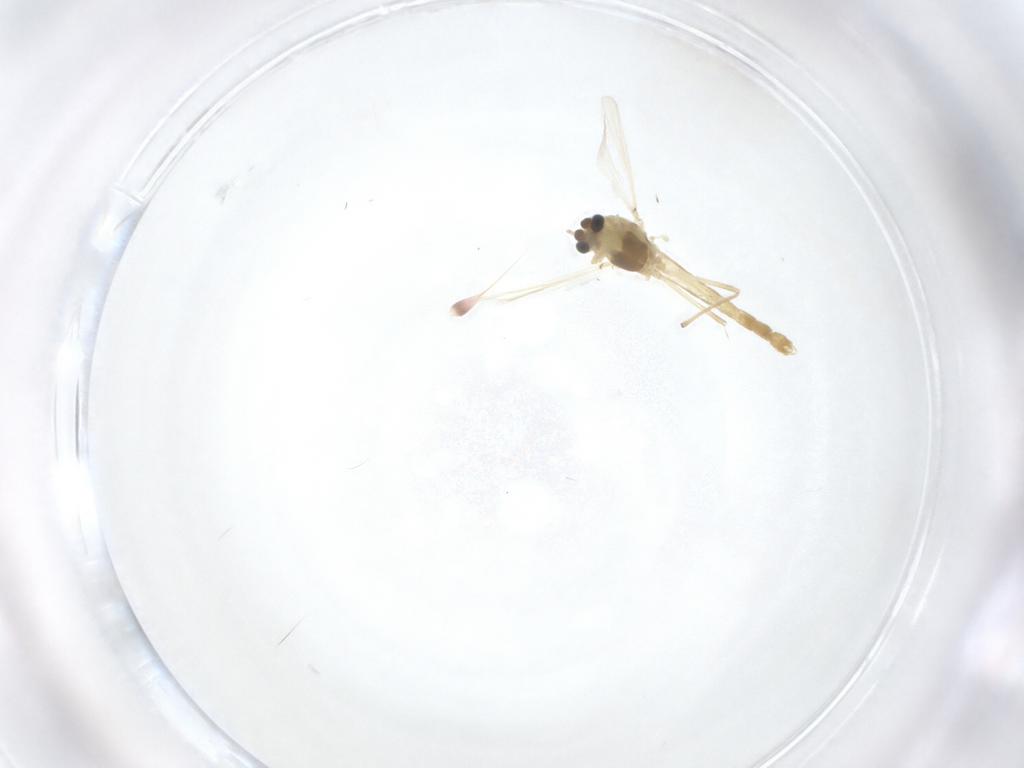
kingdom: Animalia
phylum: Arthropoda
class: Insecta
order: Diptera
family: Chironomidae
